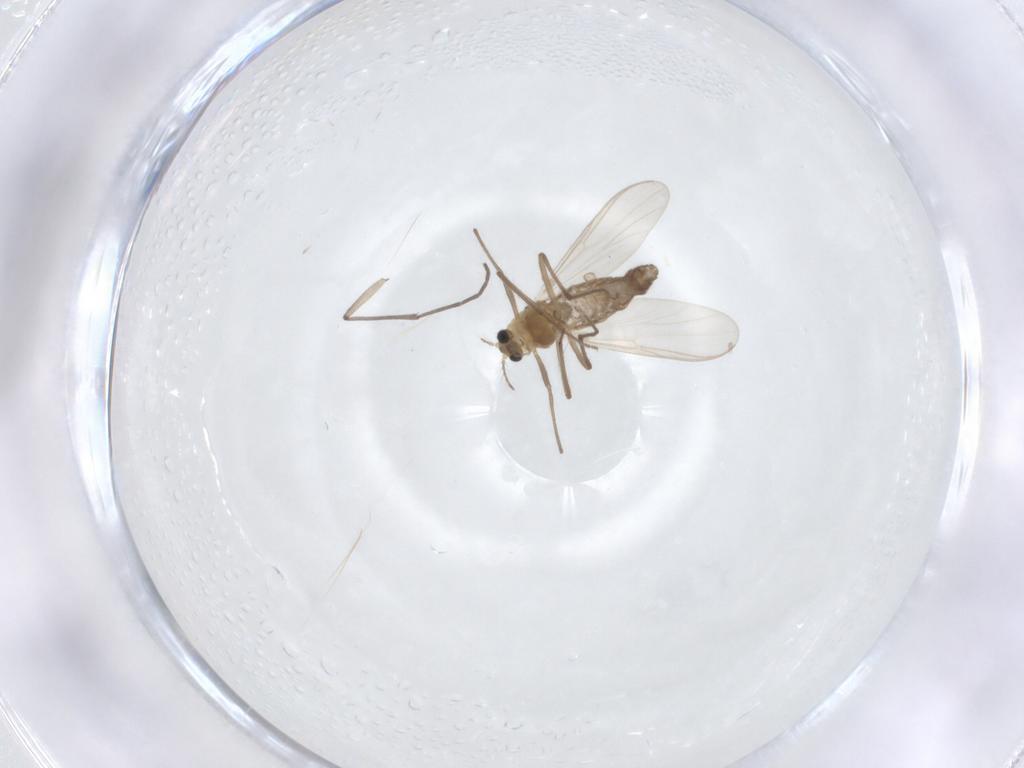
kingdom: Animalia
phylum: Arthropoda
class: Insecta
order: Diptera
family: Chironomidae
